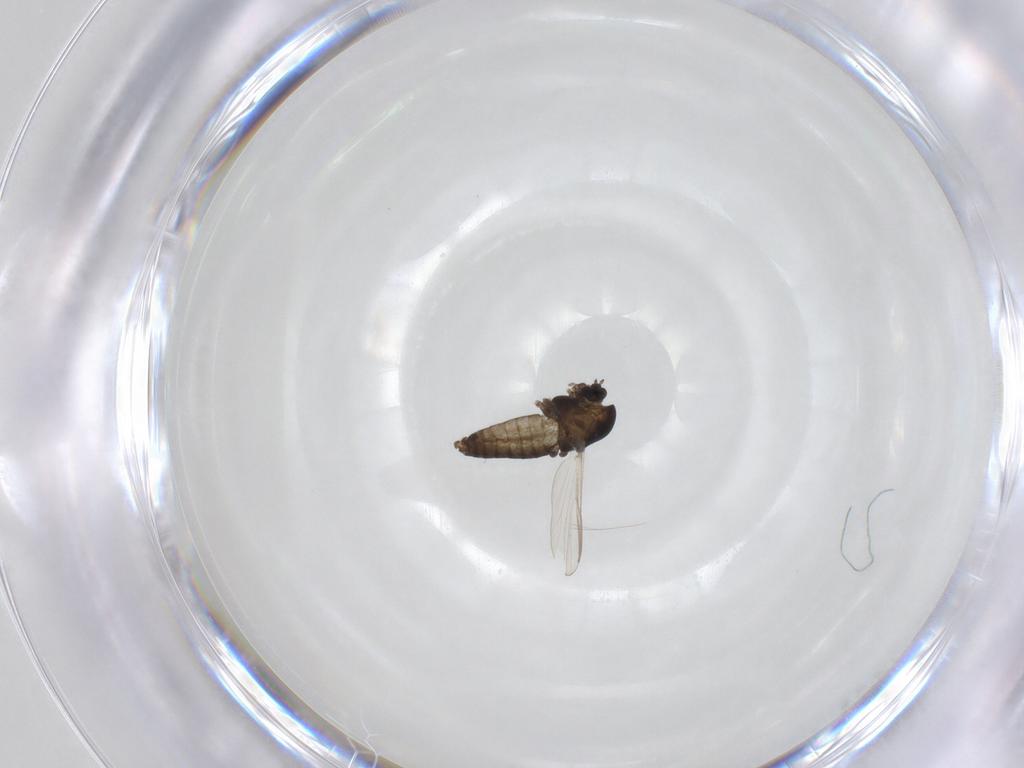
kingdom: Animalia
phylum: Arthropoda
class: Insecta
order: Diptera
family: Chironomidae
